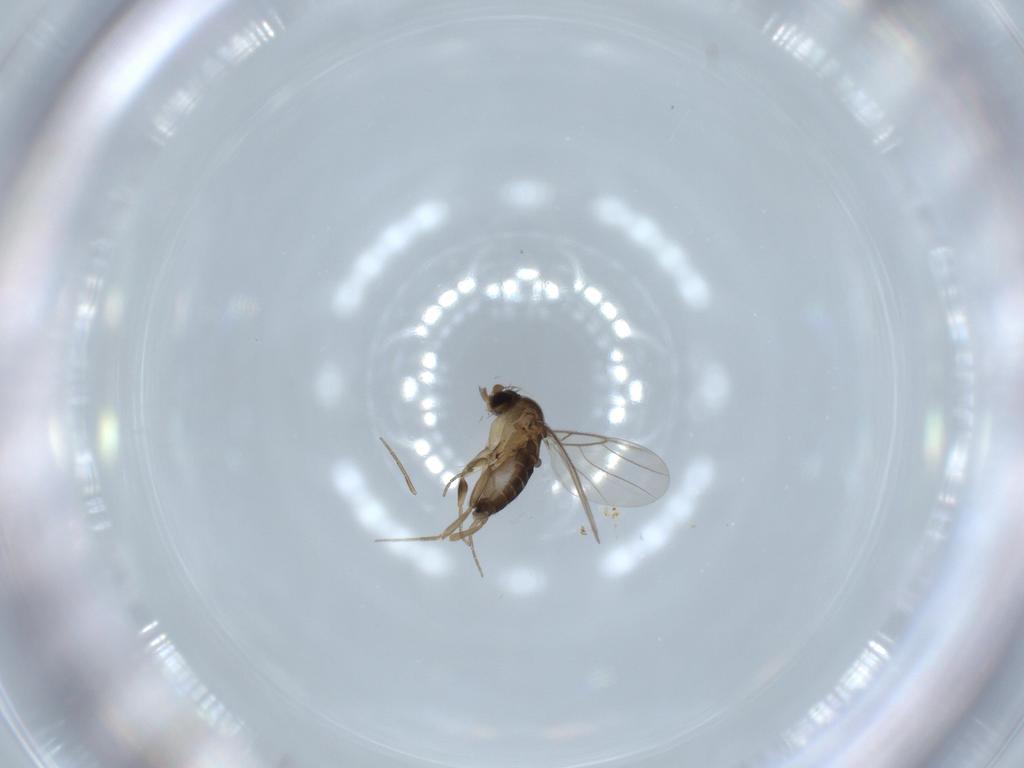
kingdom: Animalia
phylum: Arthropoda
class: Insecta
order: Diptera
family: Phoridae
